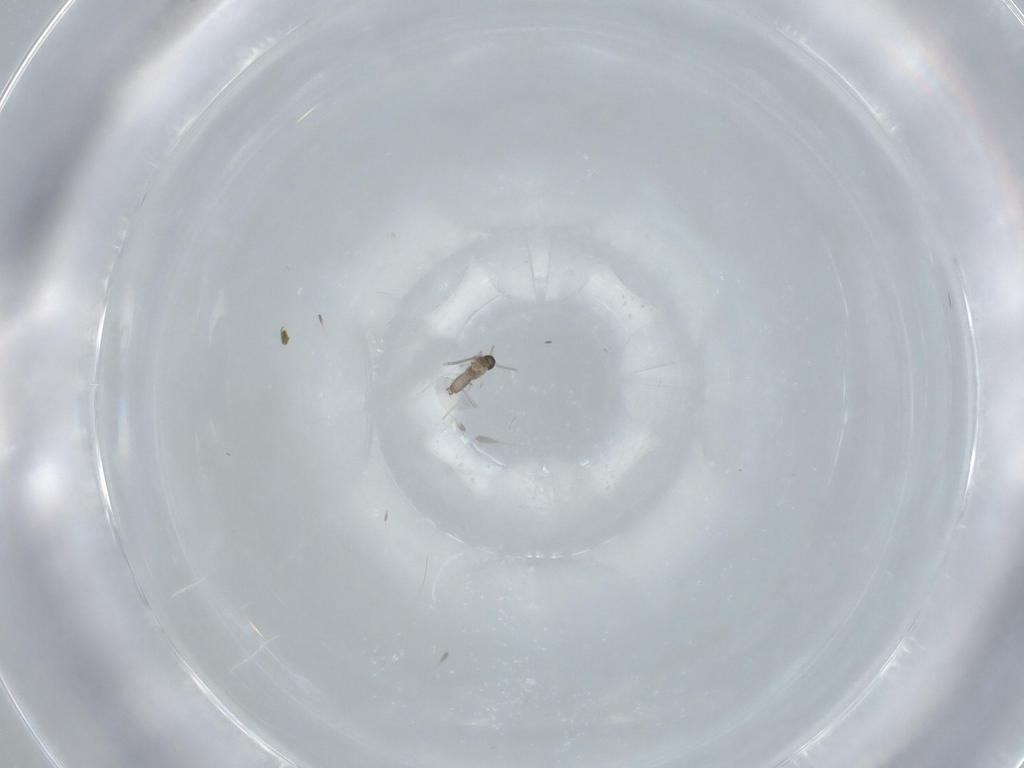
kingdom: Animalia
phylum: Arthropoda
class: Insecta
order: Diptera
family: Cecidomyiidae
